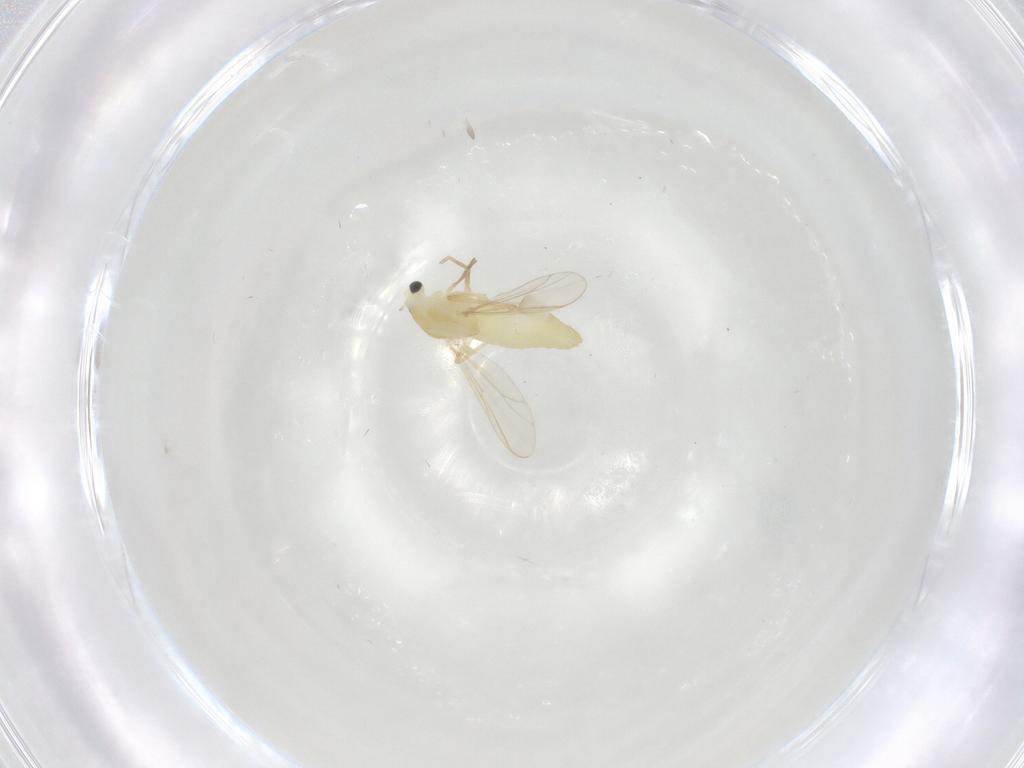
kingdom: Animalia
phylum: Arthropoda
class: Insecta
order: Diptera
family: Chironomidae
